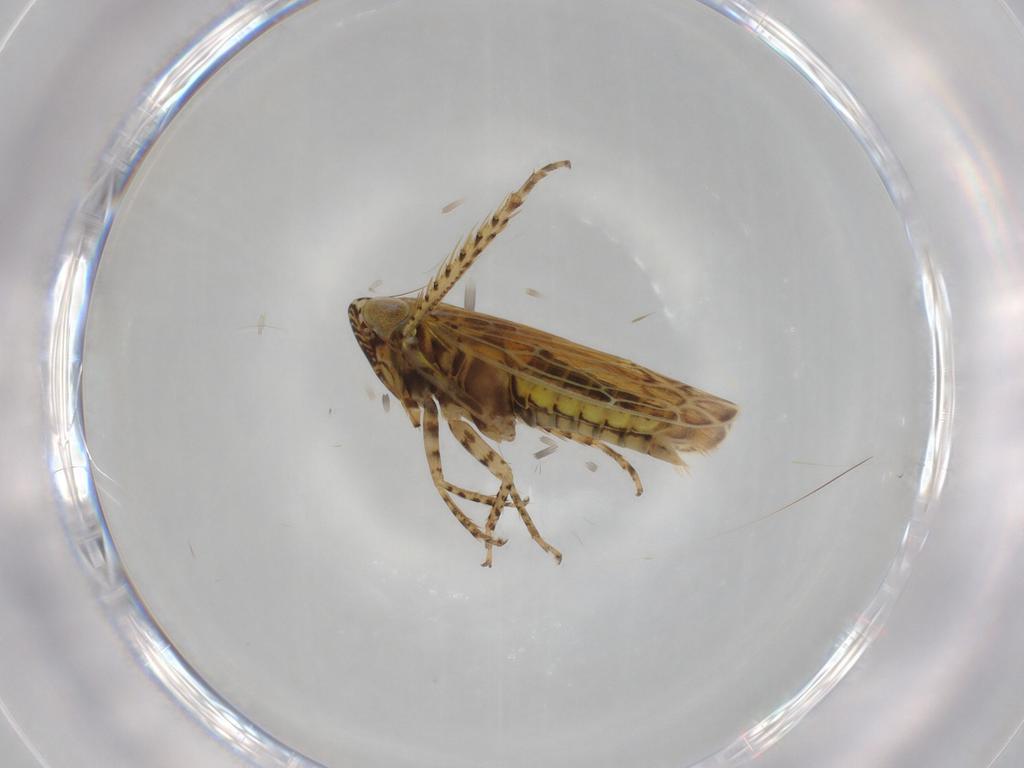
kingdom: Animalia
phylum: Arthropoda
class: Insecta
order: Hemiptera
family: Cicadellidae
